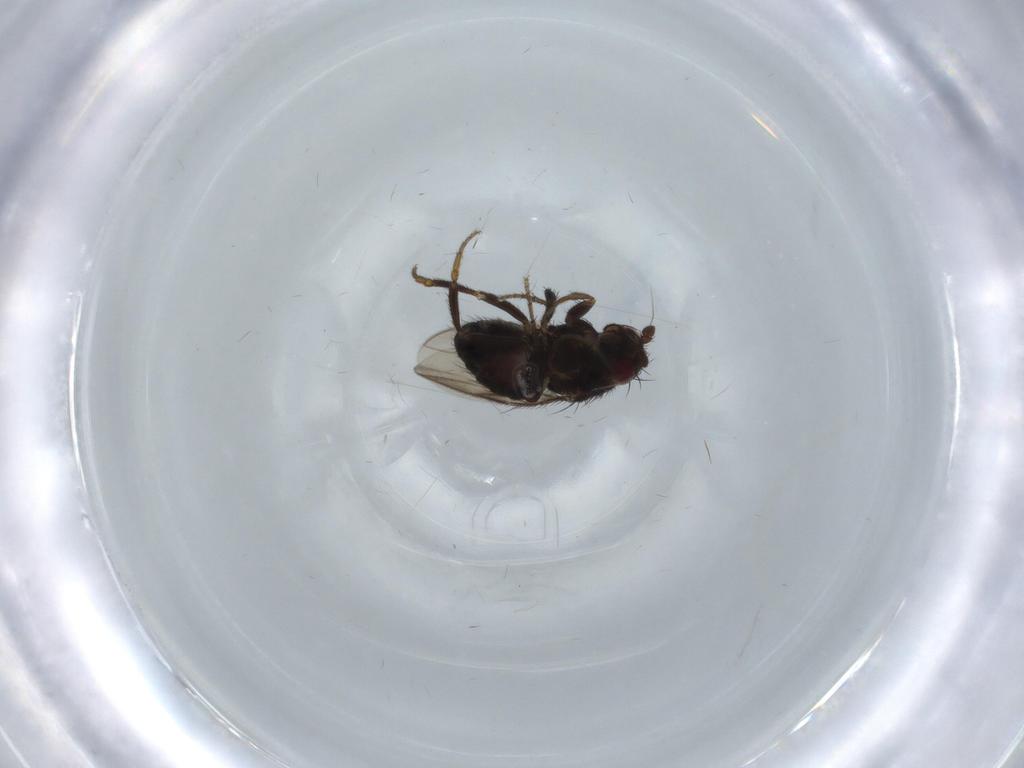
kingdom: Animalia
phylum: Arthropoda
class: Insecta
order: Diptera
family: Sphaeroceridae
